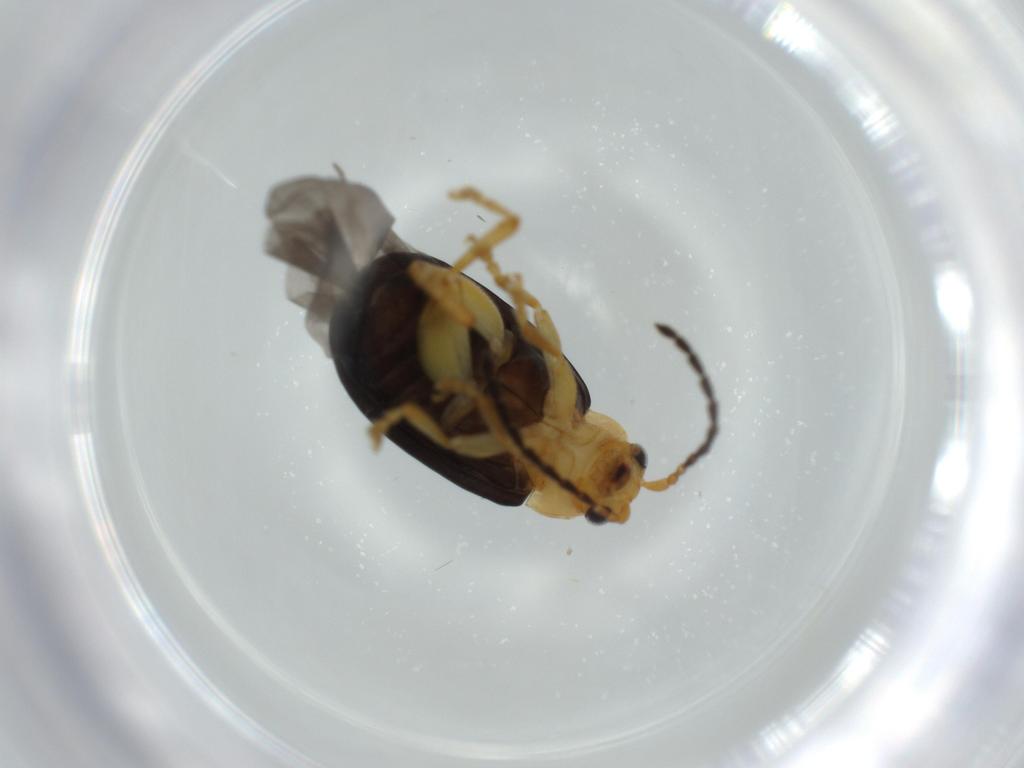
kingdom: Animalia
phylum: Arthropoda
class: Insecta
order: Coleoptera
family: Chrysomelidae
